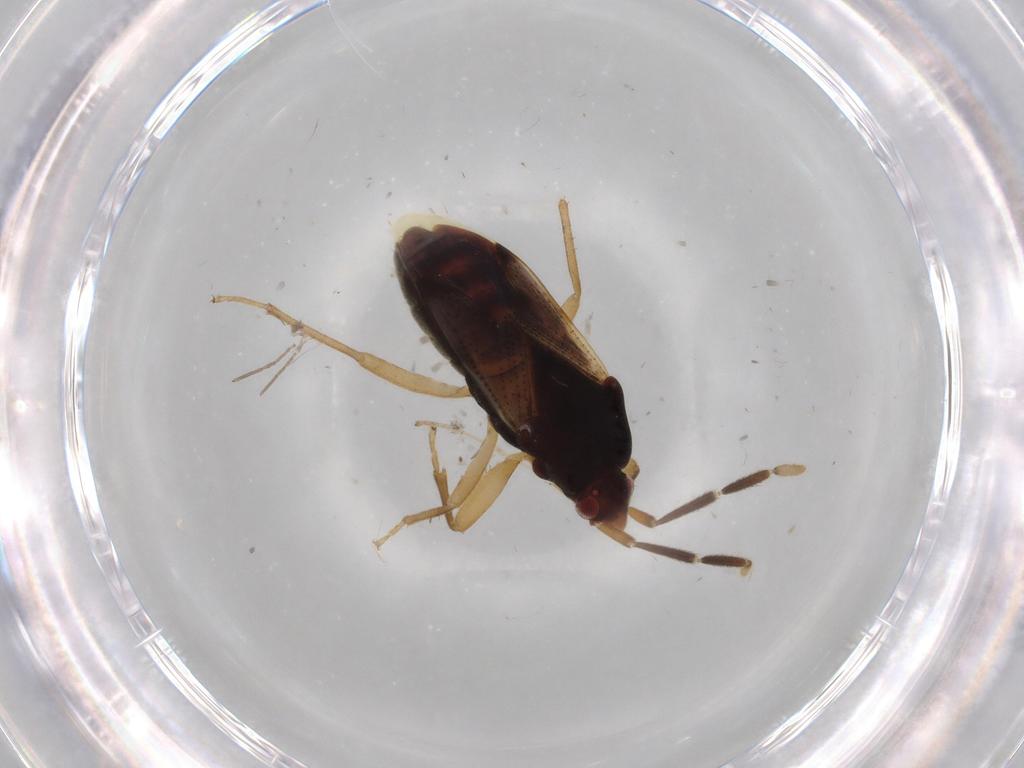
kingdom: Animalia
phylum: Arthropoda
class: Insecta
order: Hemiptera
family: Rhyparochromidae
